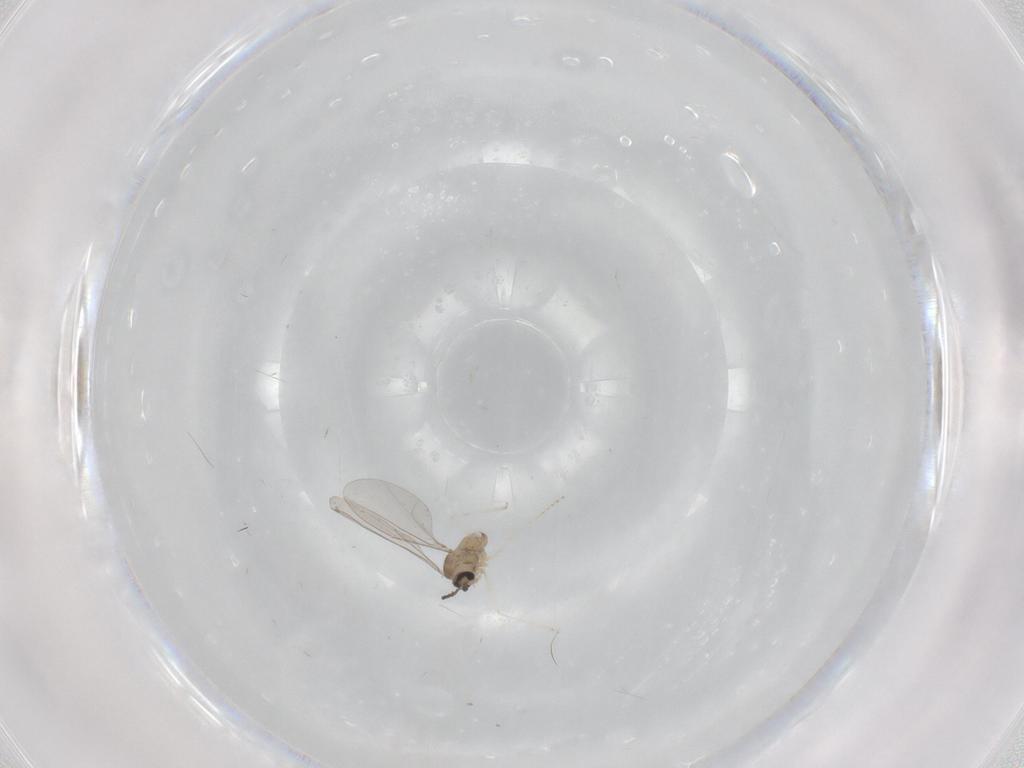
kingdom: Animalia
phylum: Arthropoda
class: Insecta
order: Diptera
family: Cecidomyiidae
